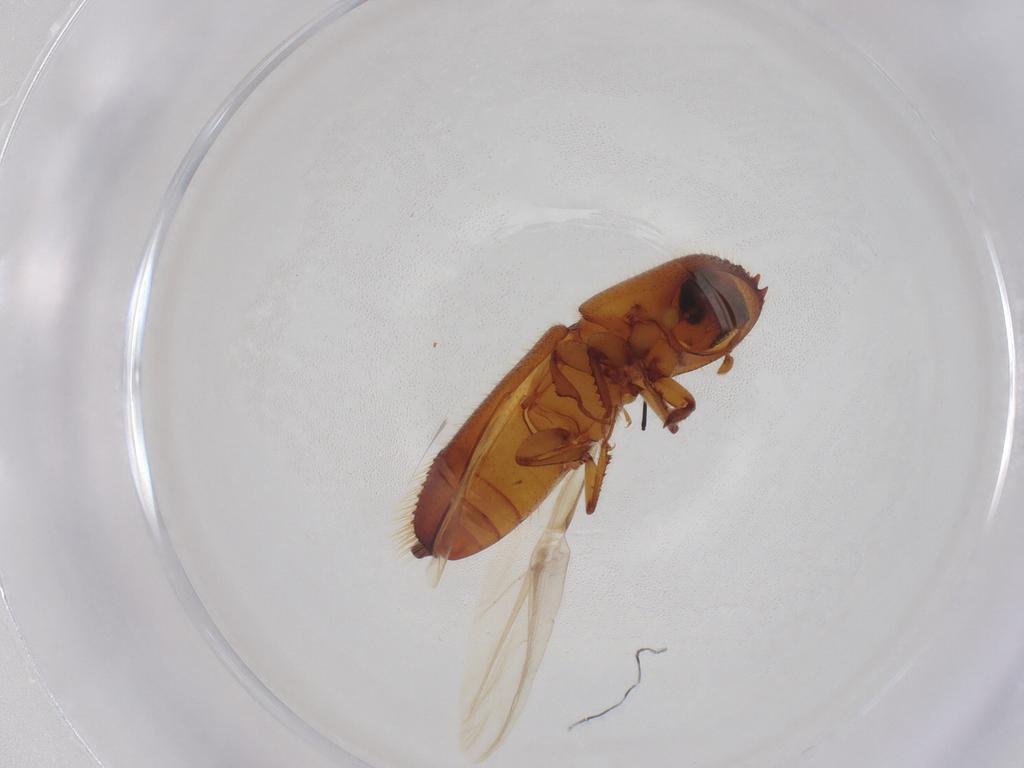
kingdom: Animalia
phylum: Arthropoda
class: Insecta
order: Coleoptera
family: Curculionidae
